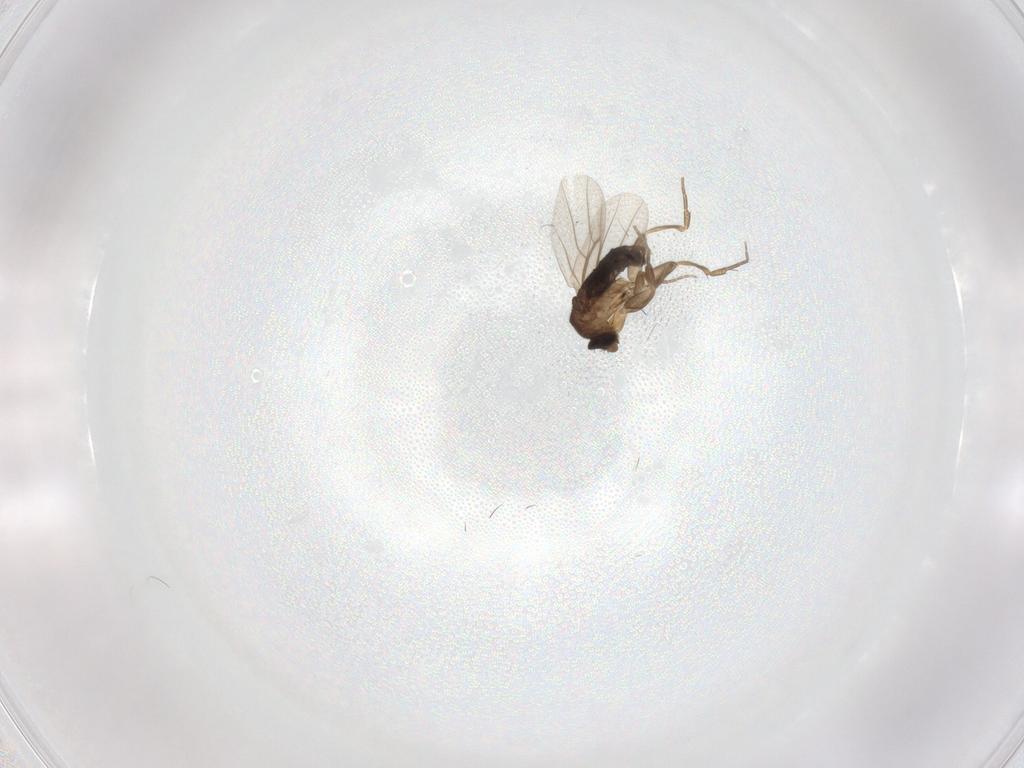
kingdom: Animalia
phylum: Arthropoda
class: Insecta
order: Diptera
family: Phoridae
